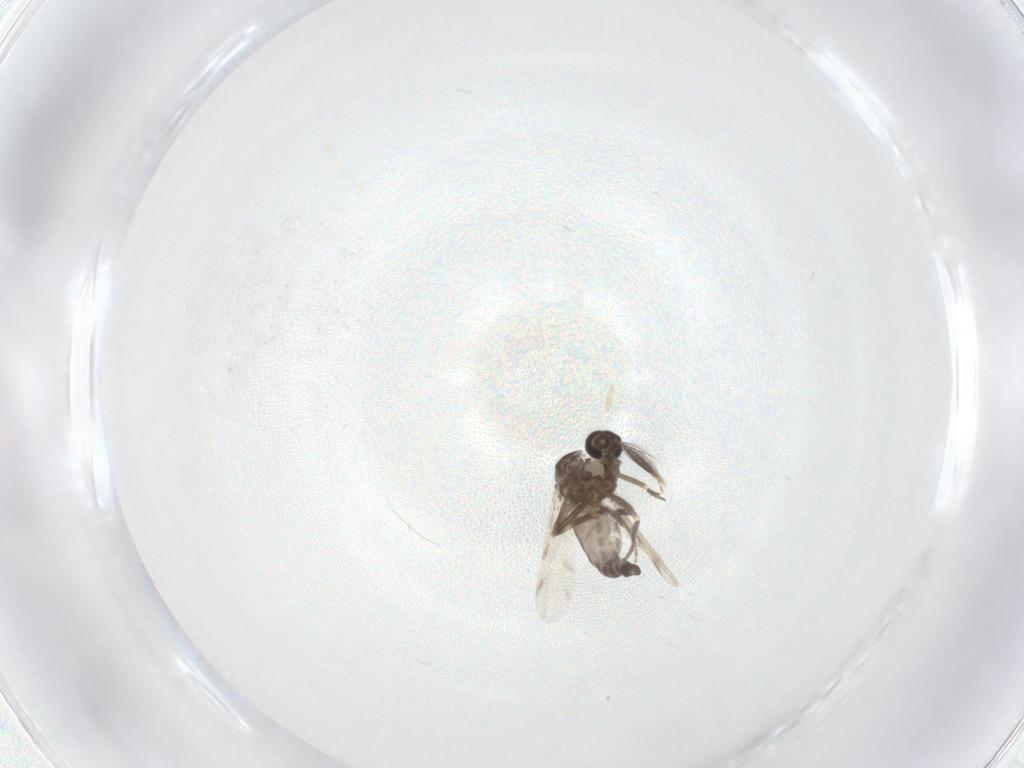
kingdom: Animalia
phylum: Arthropoda
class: Insecta
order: Diptera
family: Ceratopogonidae
